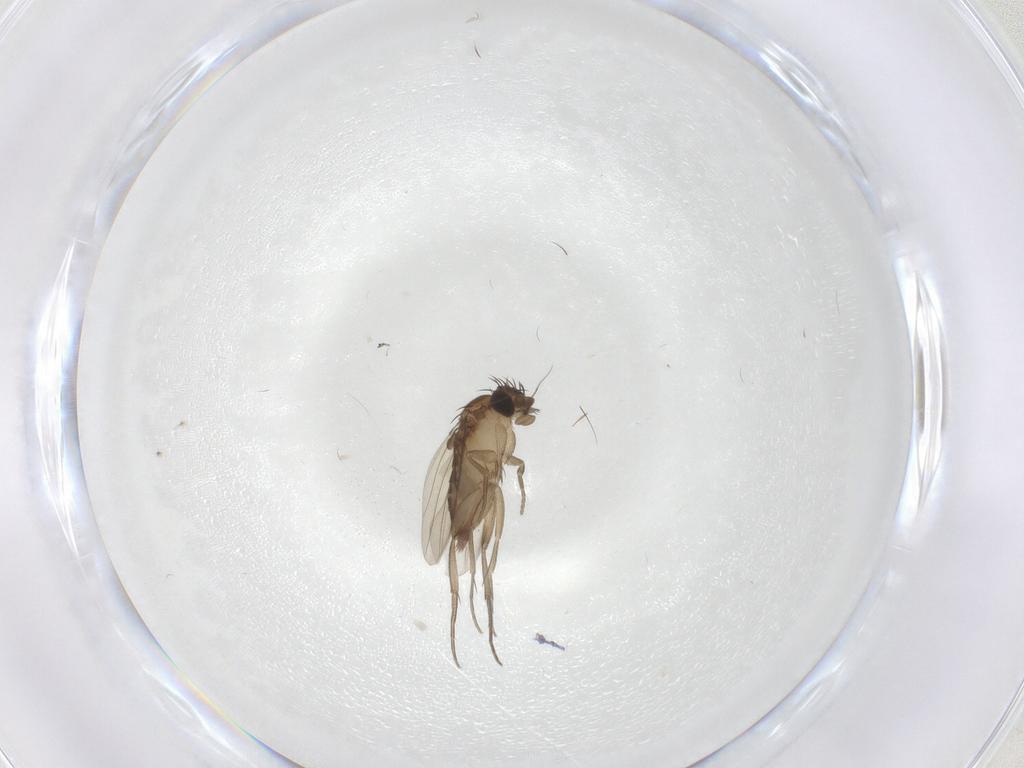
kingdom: Animalia
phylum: Arthropoda
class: Insecta
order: Diptera
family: Phoridae
